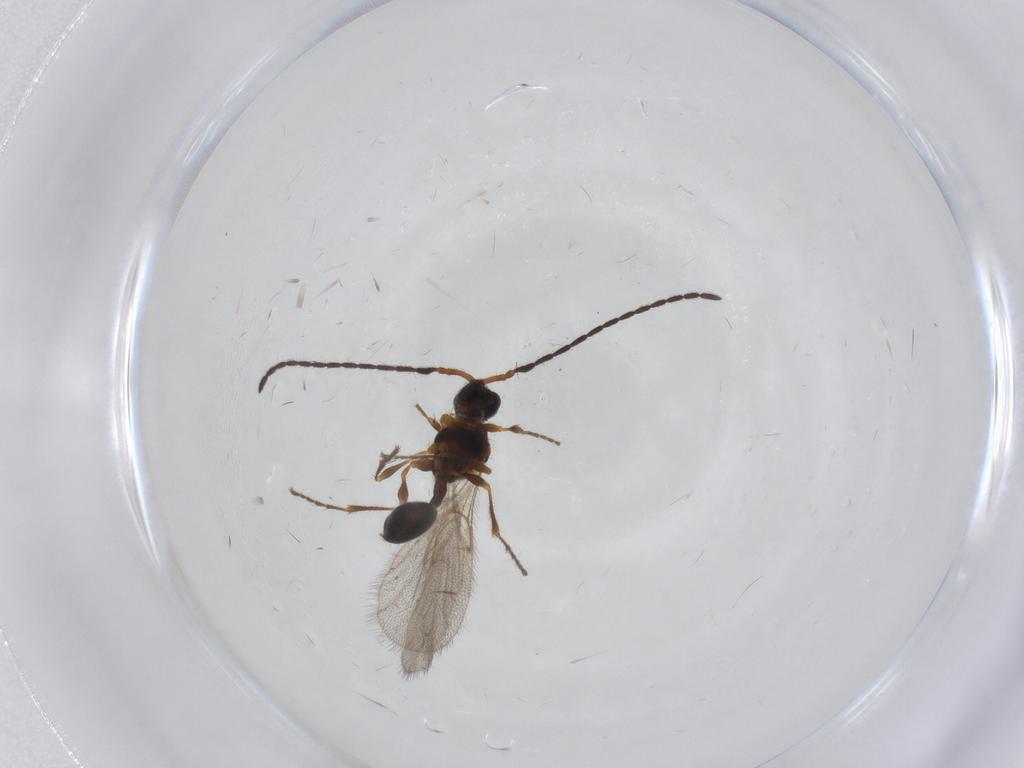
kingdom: Animalia
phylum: Arthropoda
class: Insecta
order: Hymenoptera
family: Diapriidae
